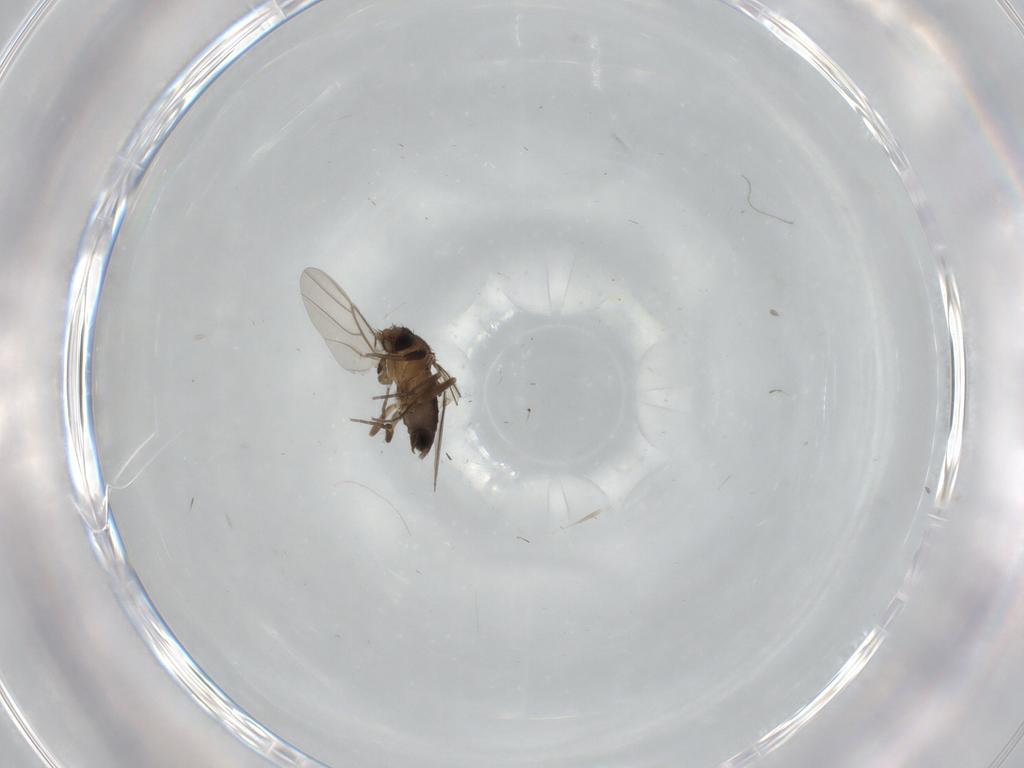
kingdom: Animalia
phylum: Arthropoda
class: Insecta
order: Diptera
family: Phoridae
